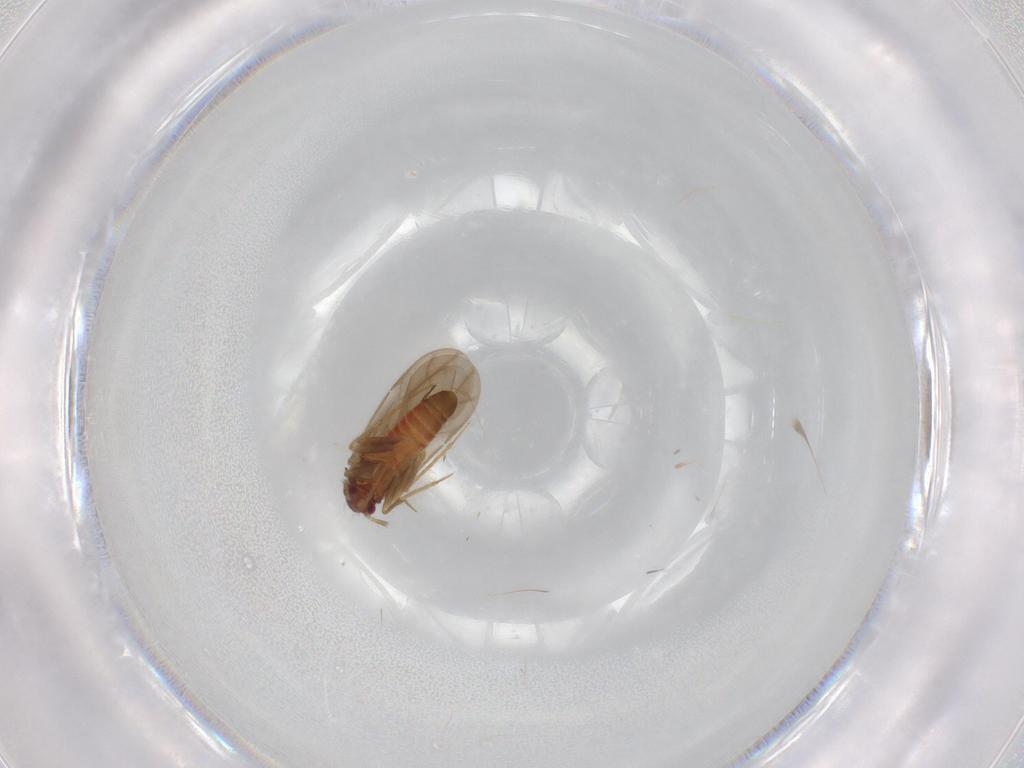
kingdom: Animalia
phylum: Arthropoda
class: Insecta
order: Hemiptera
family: Ceratocombidae
